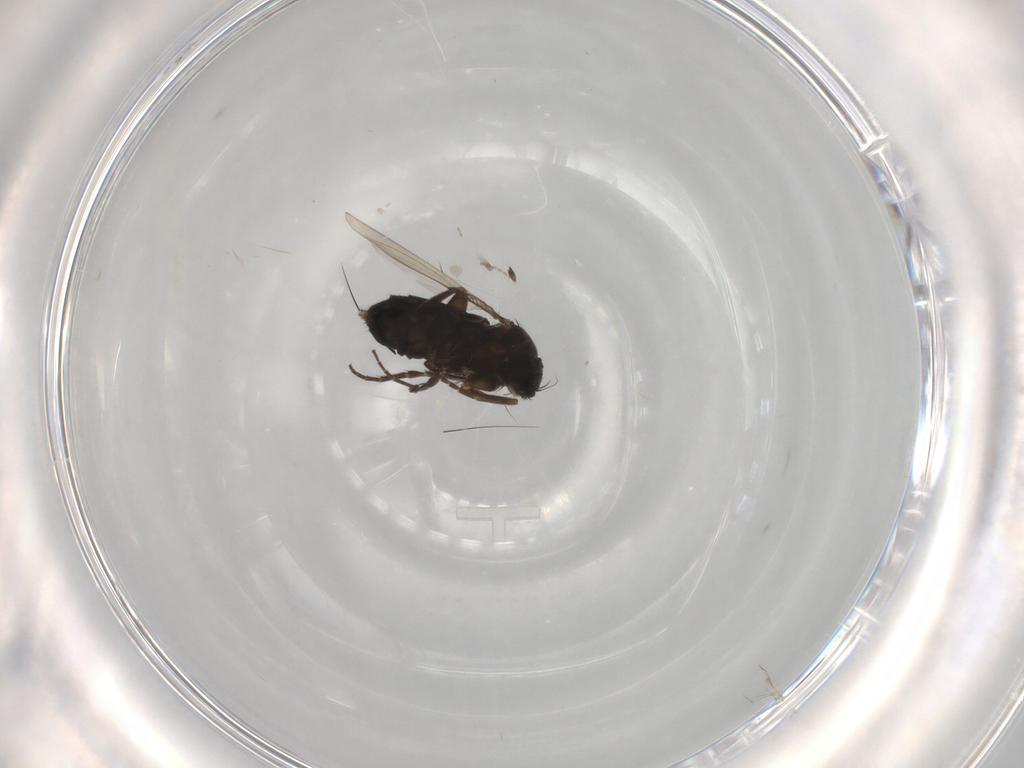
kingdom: Animalia
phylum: Arthropoda
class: Insecta
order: Diptera
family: Phoridae
